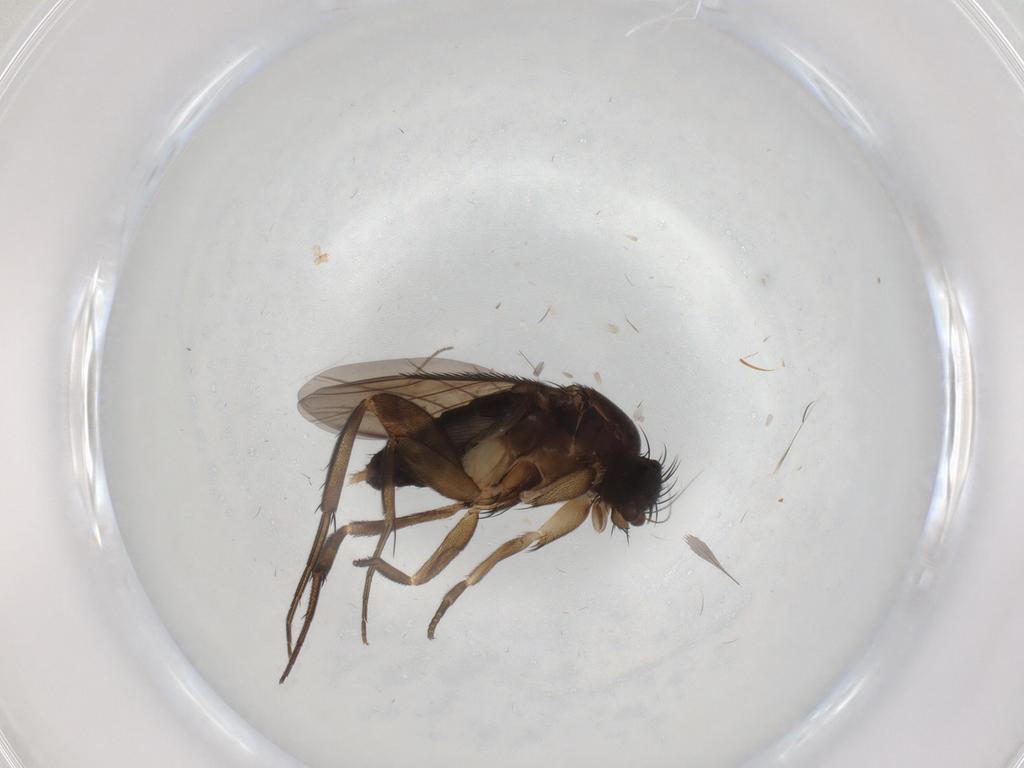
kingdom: Animalia
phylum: Arthropoda
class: Insecta
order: Diptera
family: Phoridae
